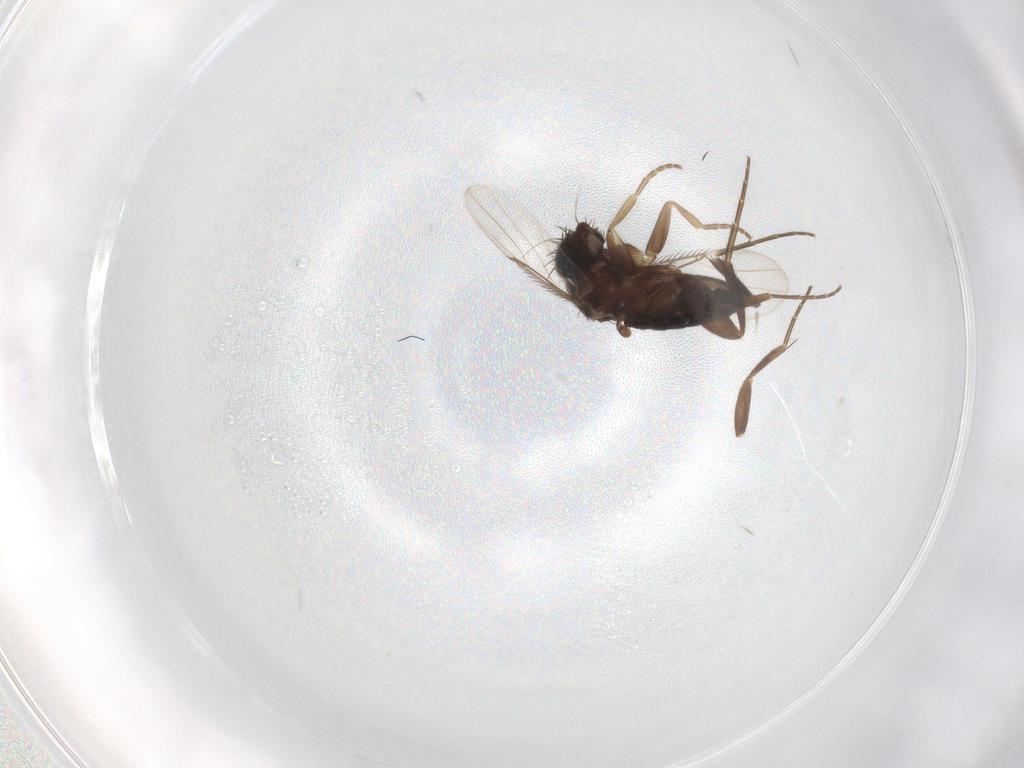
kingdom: Animalia
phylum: Arthropoda
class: Insecta
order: Diptera
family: Phoridae
